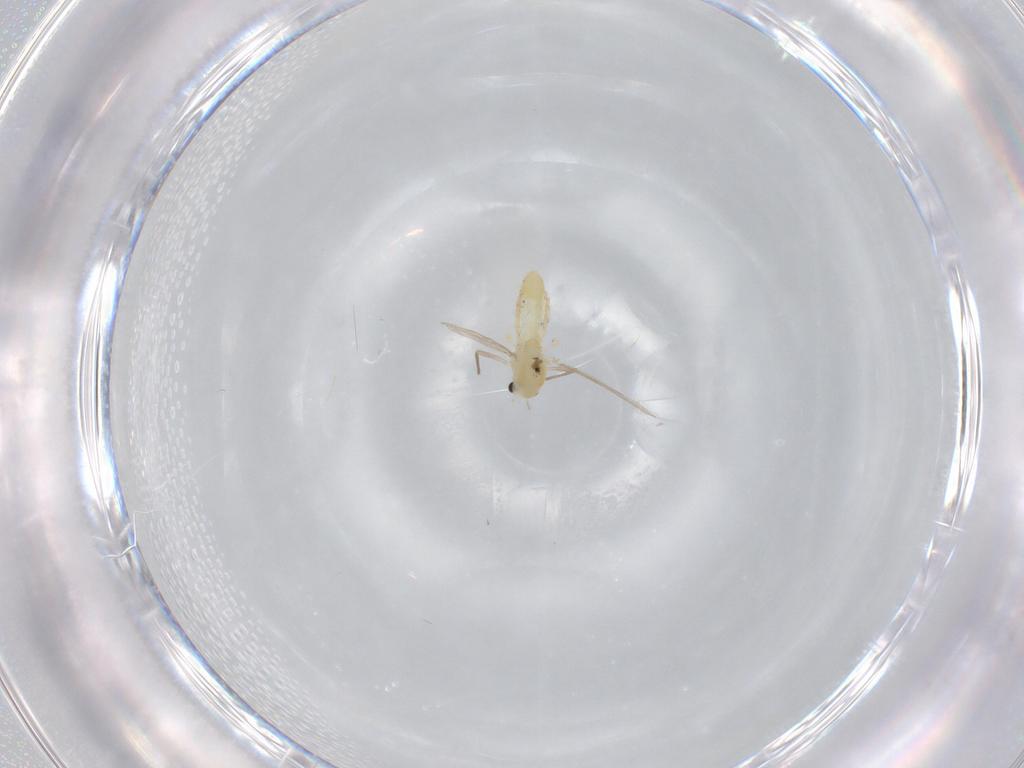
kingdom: Animalia
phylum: Arthropoda
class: Insecta
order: Diptera
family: Chironomidae
